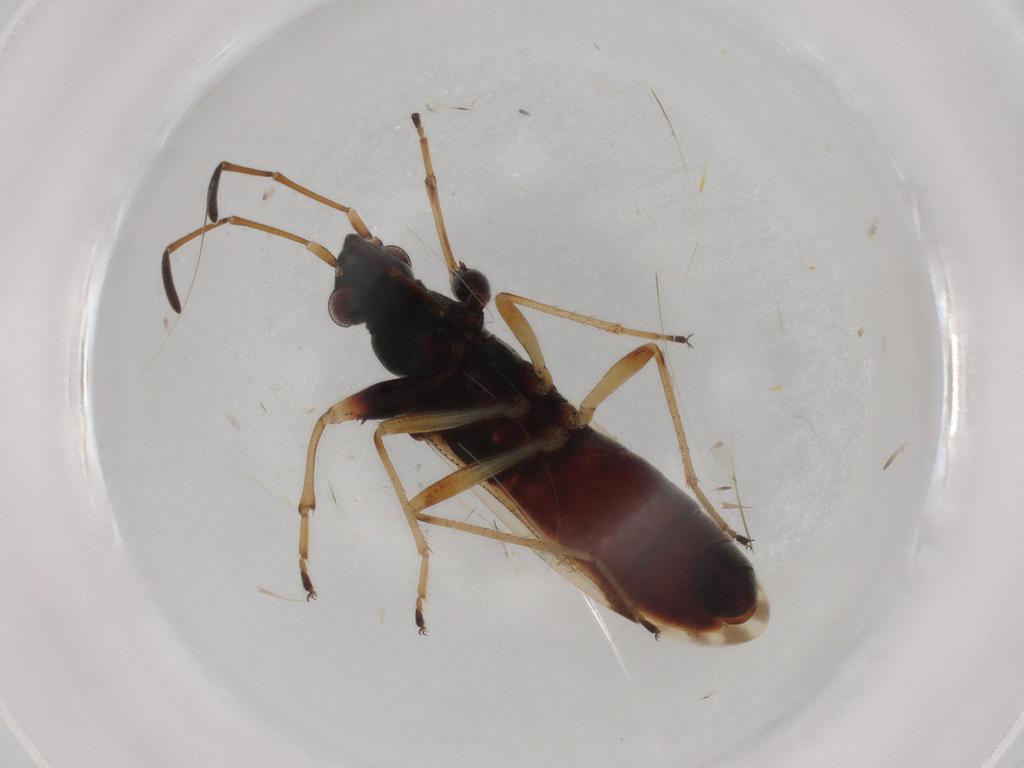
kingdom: Animalia
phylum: Arthropoda
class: Insecta
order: Hemiptera
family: Rhyparochromidae
